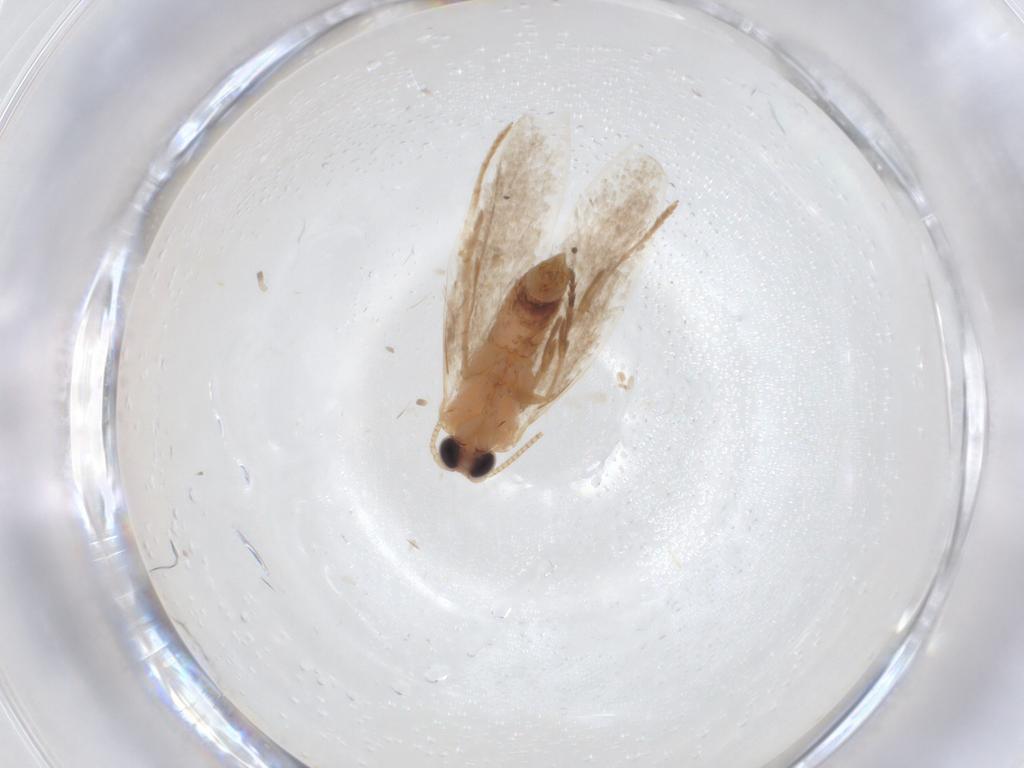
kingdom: Animalia
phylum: Arthropoda
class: Insecta
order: Lepidoptera
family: Nepticulidae
